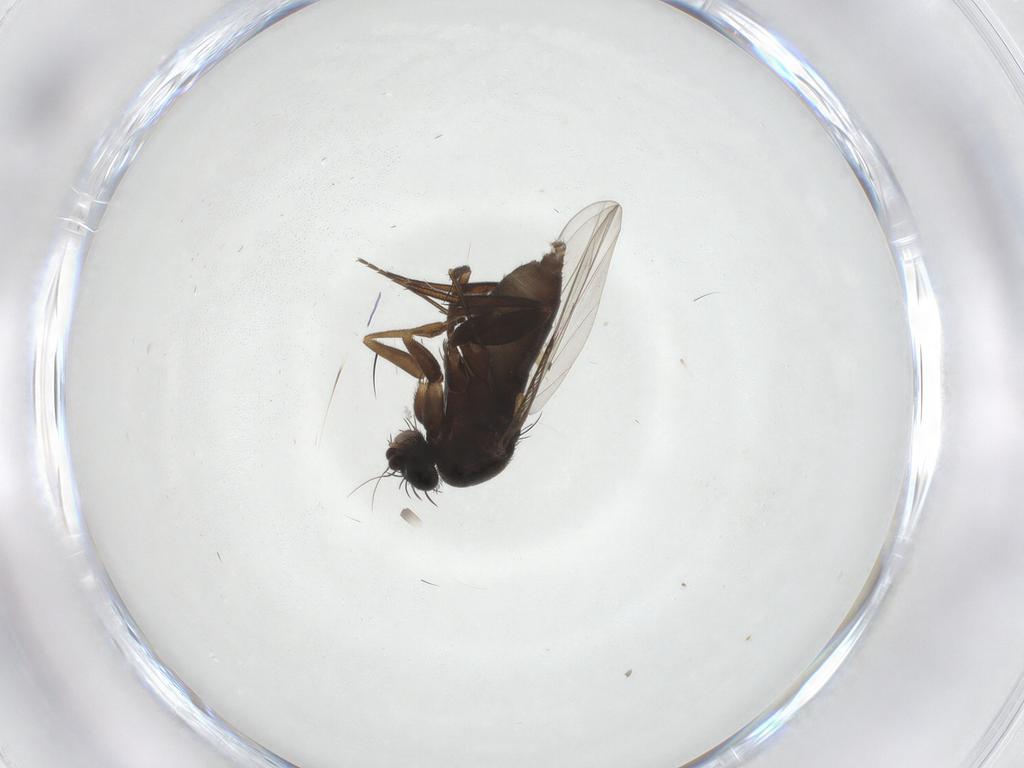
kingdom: Animalia
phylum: Arthropoda
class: Insecta
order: Diptera
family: Phoridae
